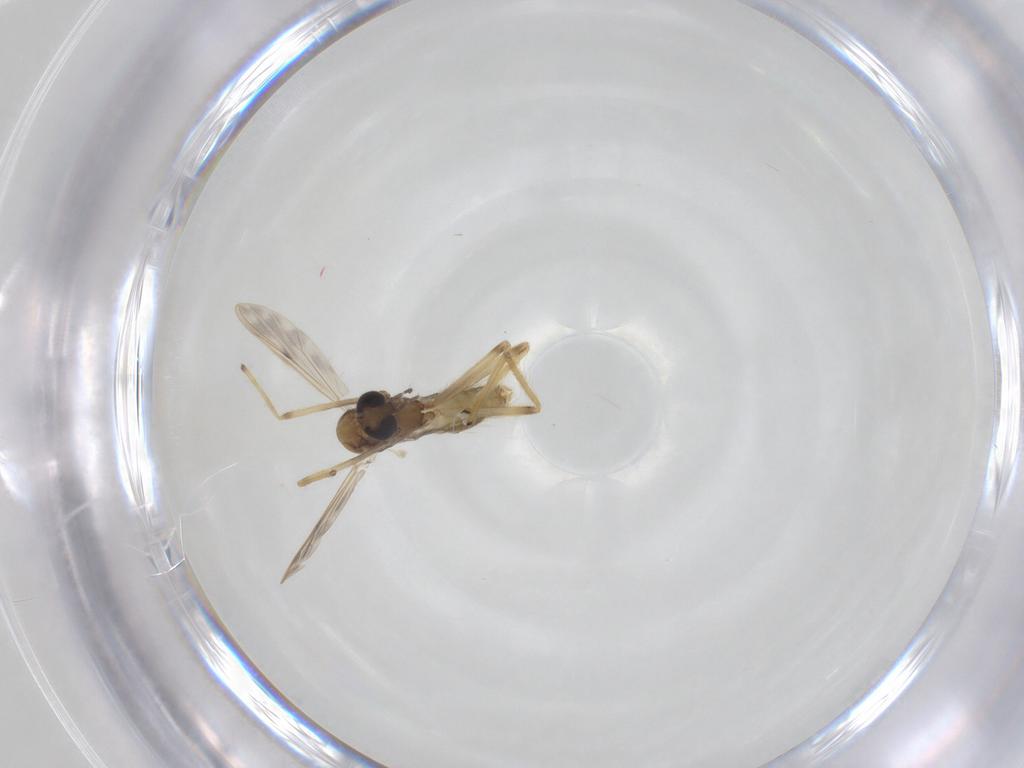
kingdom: Animalia
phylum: Arthropoda
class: Insecta
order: Diptera
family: Chironomidae
